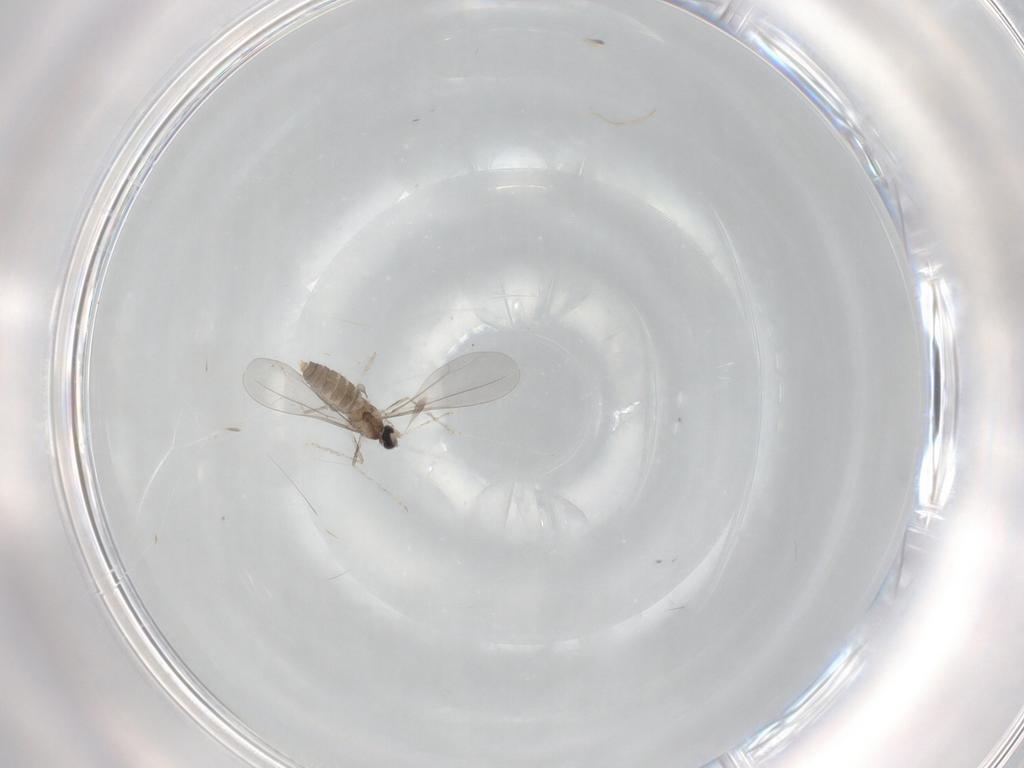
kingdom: Animalia
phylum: Arthropoda
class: Insecta
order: Diptera
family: Cecidomyiidae
